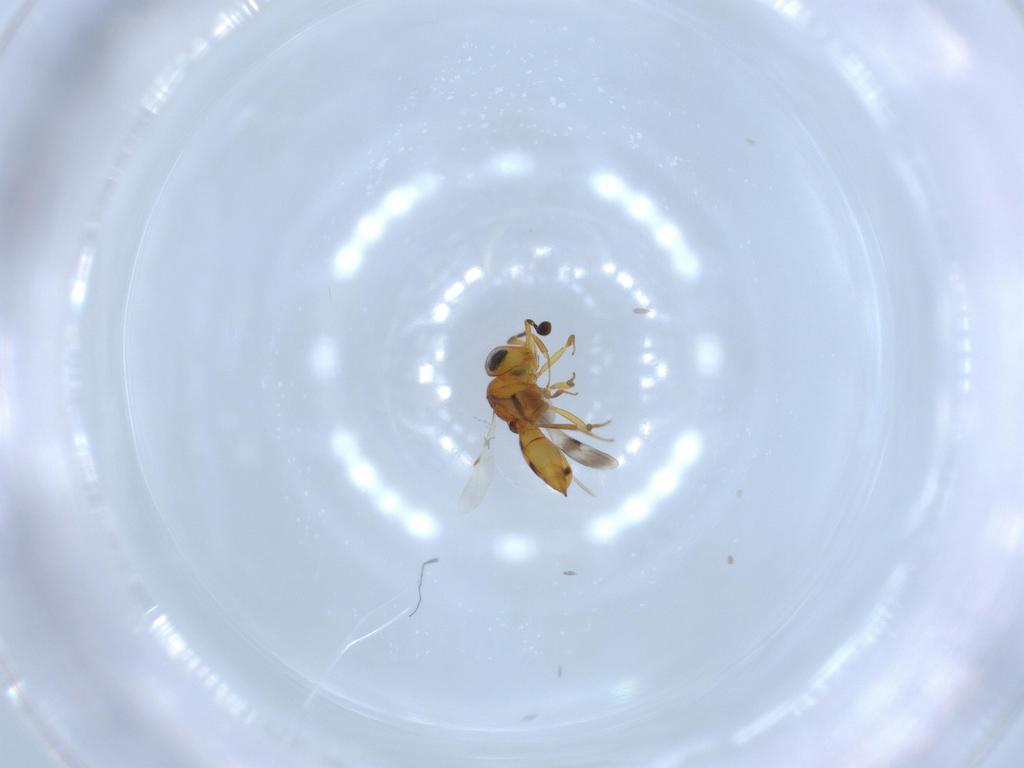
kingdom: Animalia
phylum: Arthropoda
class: Insecta
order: Hymenoptera
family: Scelionidae
